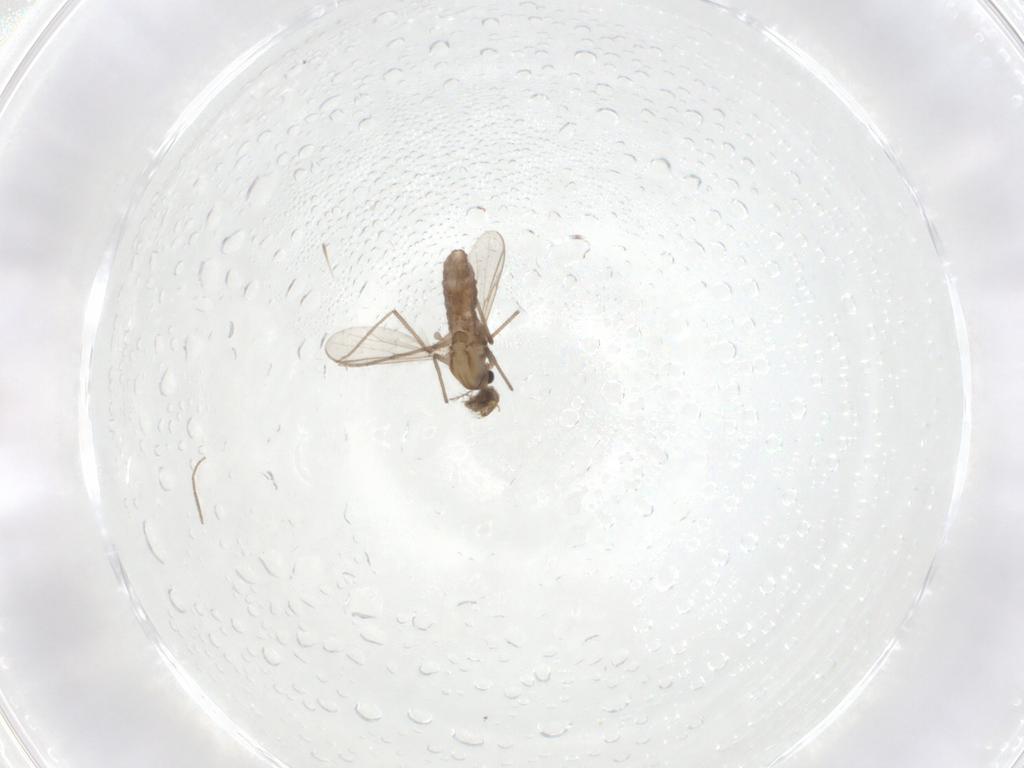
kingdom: Animalia
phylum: Arthropoda
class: Insecta
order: Diptera
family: Chironomidae
